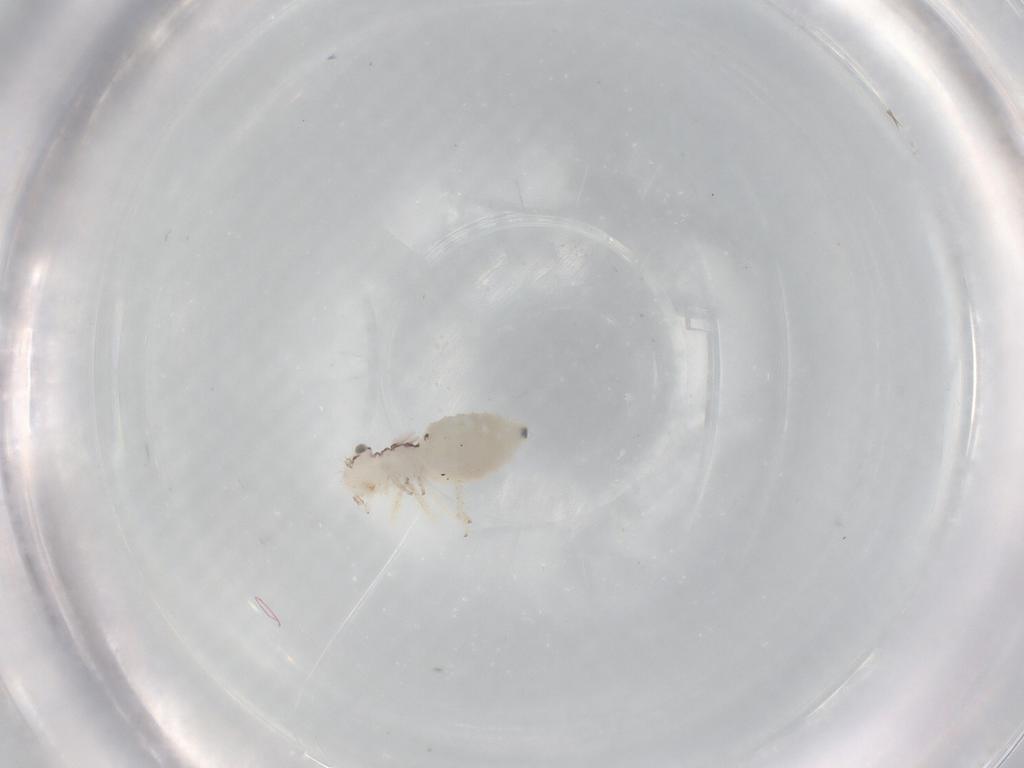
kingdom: Animalia
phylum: Arthropoda
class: Insecta
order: Psocodea
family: Pseudocaeciliidae
